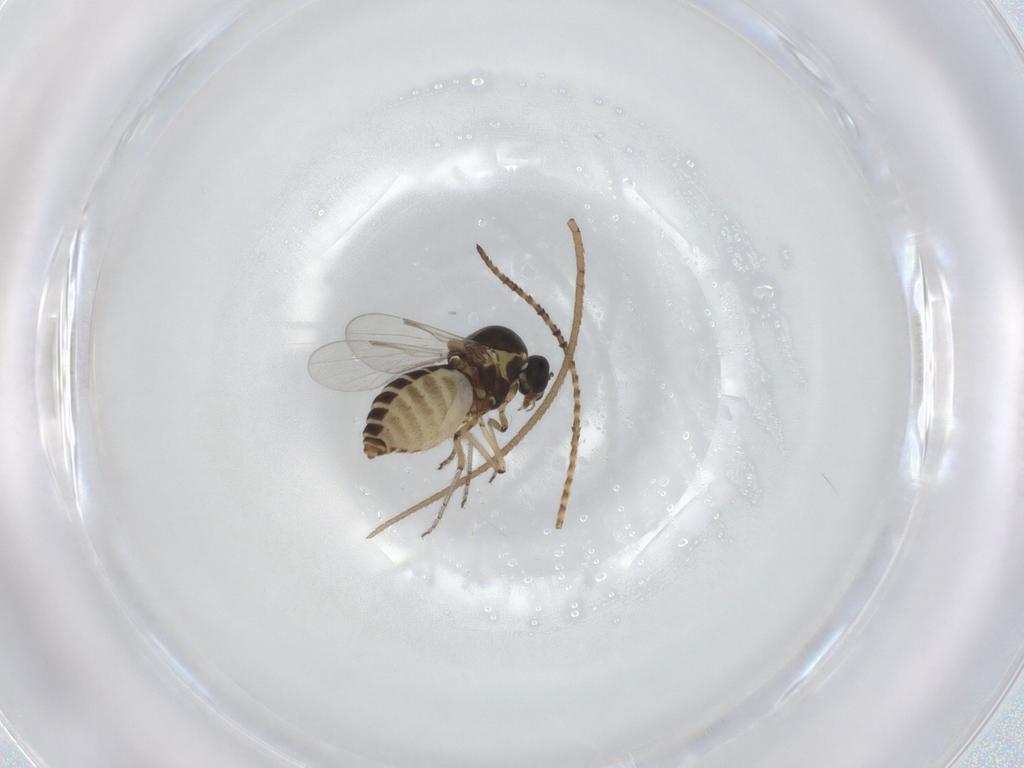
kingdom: Animalia
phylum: Arthropoda
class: Insecta
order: Diptera
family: Ceratopogonidae
